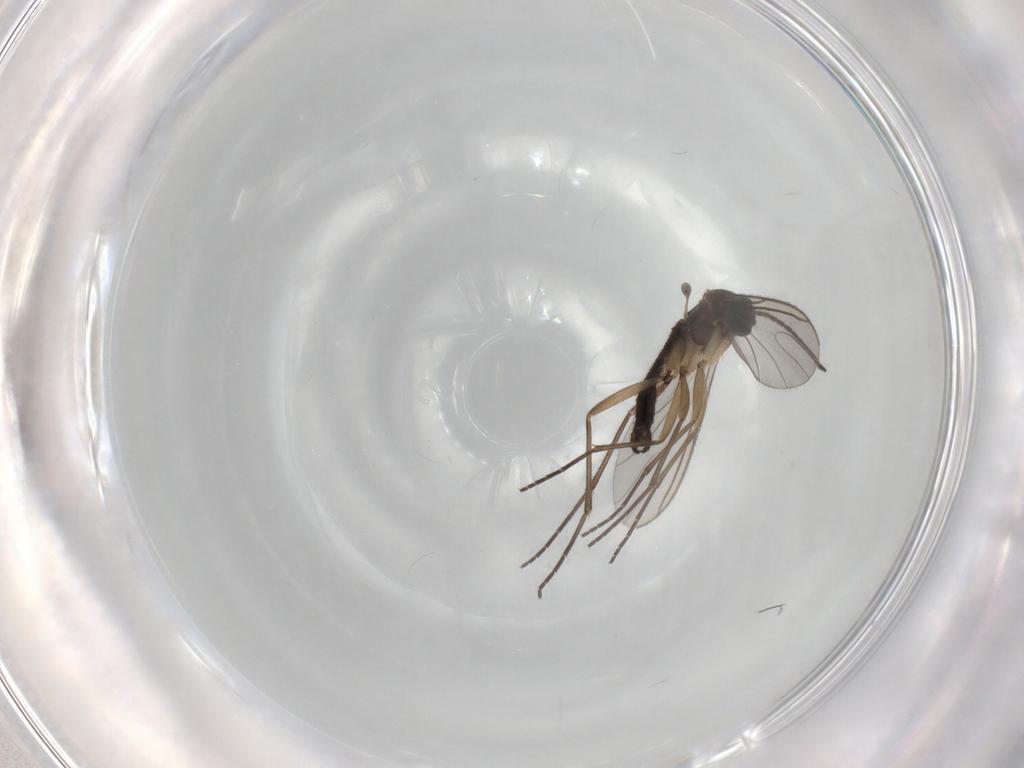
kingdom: Animalia
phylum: Arthropoda
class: Insecta
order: Diptera
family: Sciaridae
